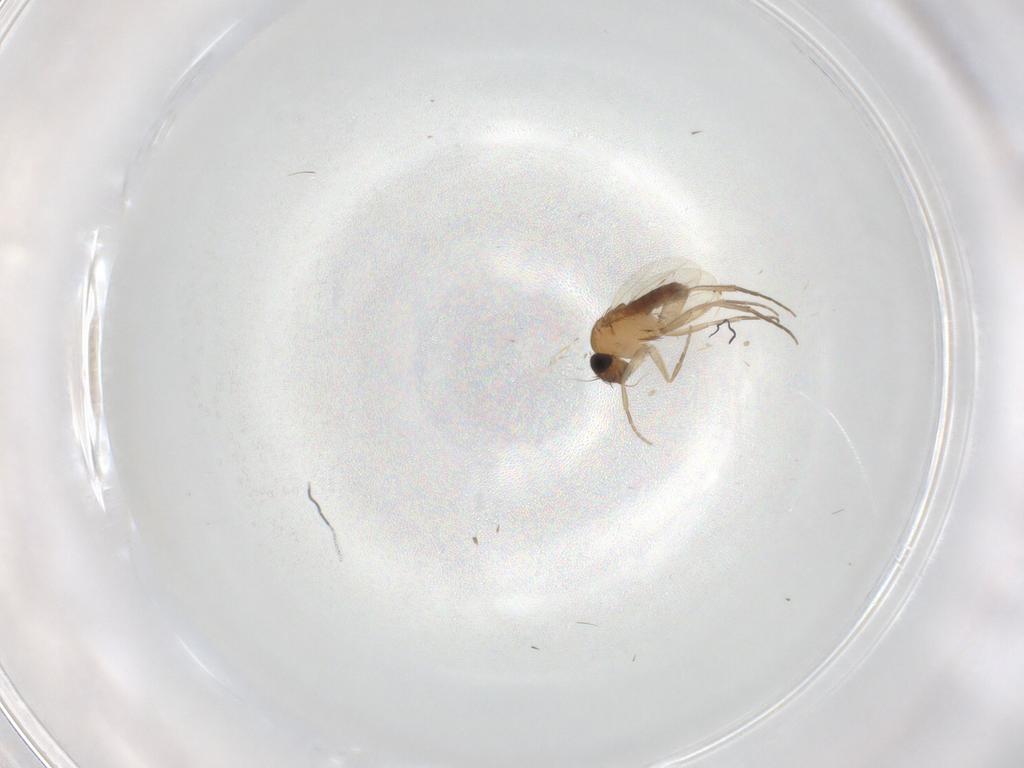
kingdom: Animalia
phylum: Arthropoda
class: Insecta
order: Diptera
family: Phoridae
